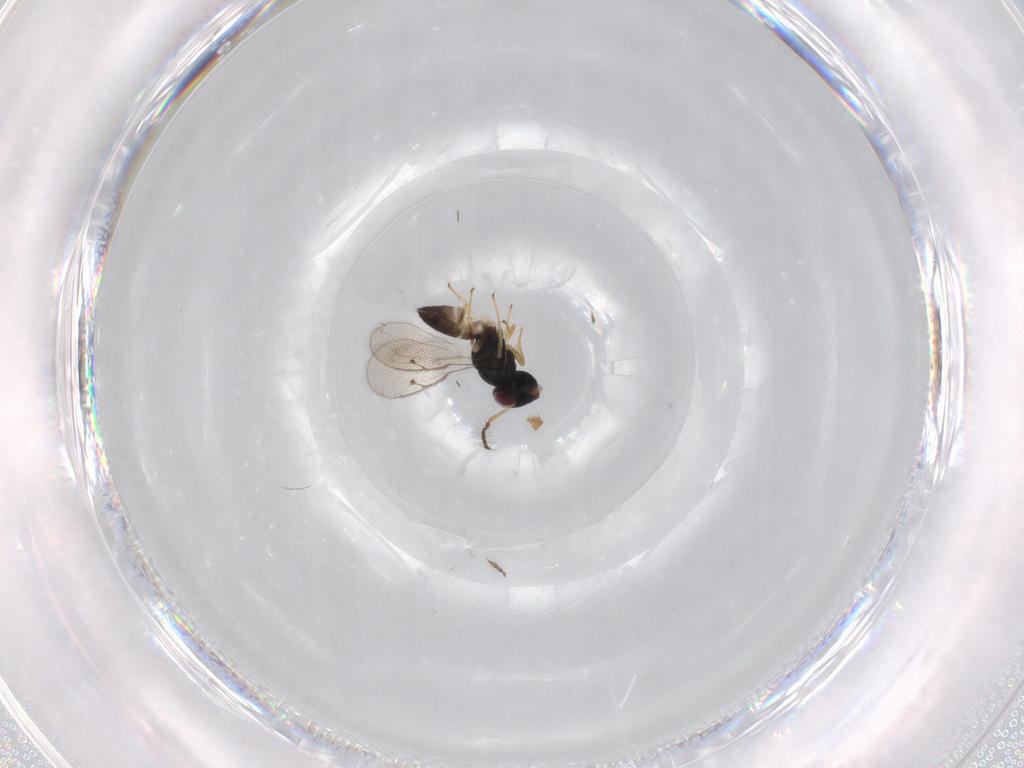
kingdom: Animalia
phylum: Arthropoda
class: Insecta
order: Hymenoptera
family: Pteromalidae
